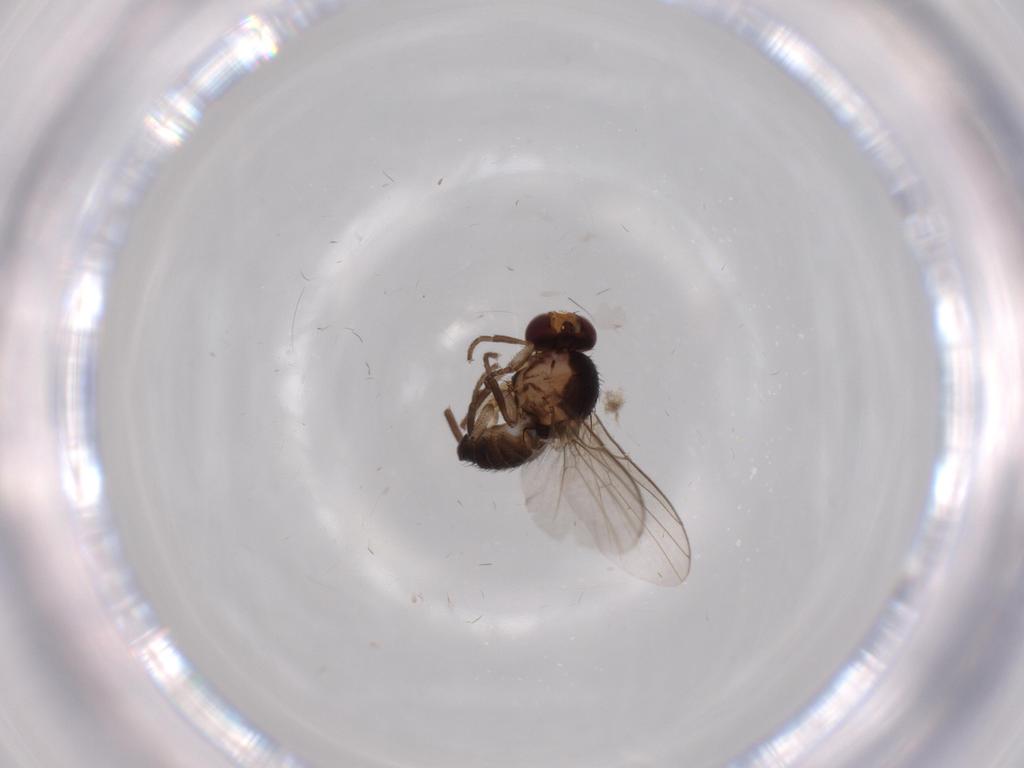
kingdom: Animalia
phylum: Arthropoda
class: Insecta
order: Diptera
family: Agromyzidae
